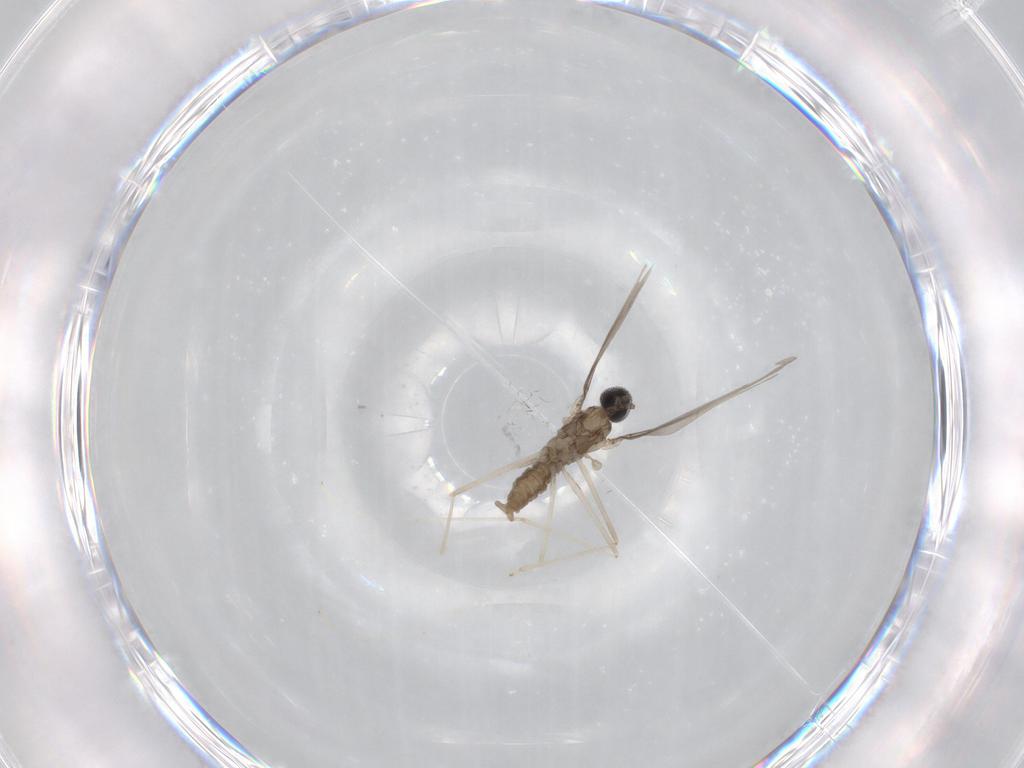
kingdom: Animalia
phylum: Arthropoda
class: Insecta
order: Diptera
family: Cecidomyiidae
